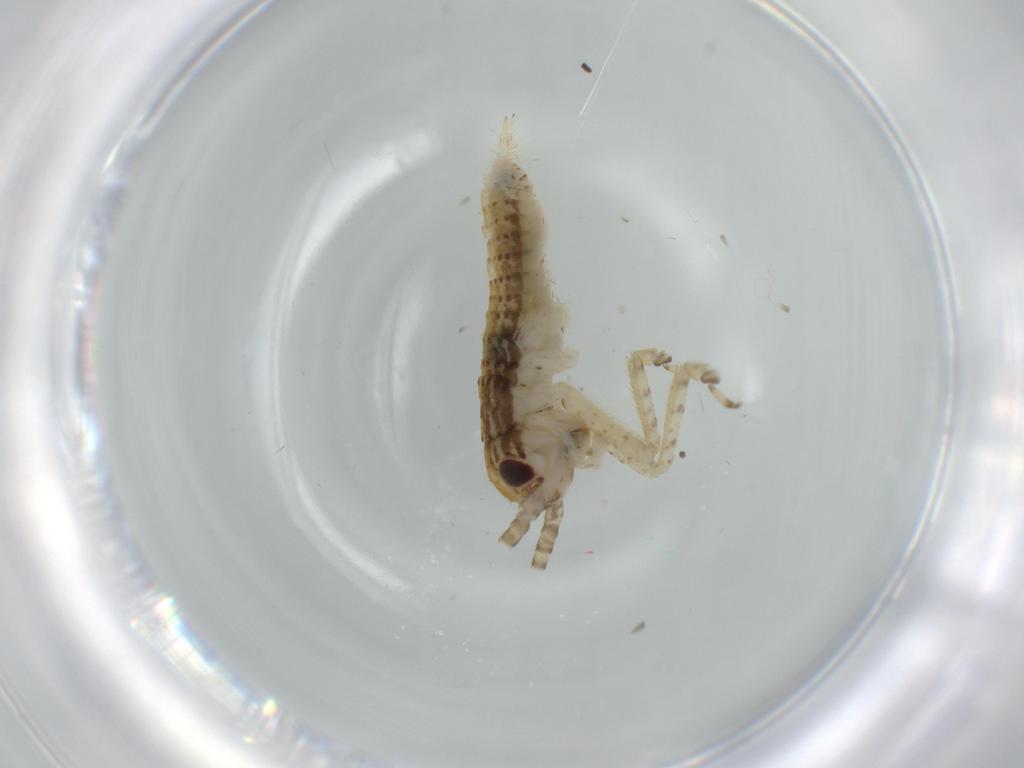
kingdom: Animalia
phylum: Arthropoda
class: Insecta
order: Orthoptera
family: Gryllidae
